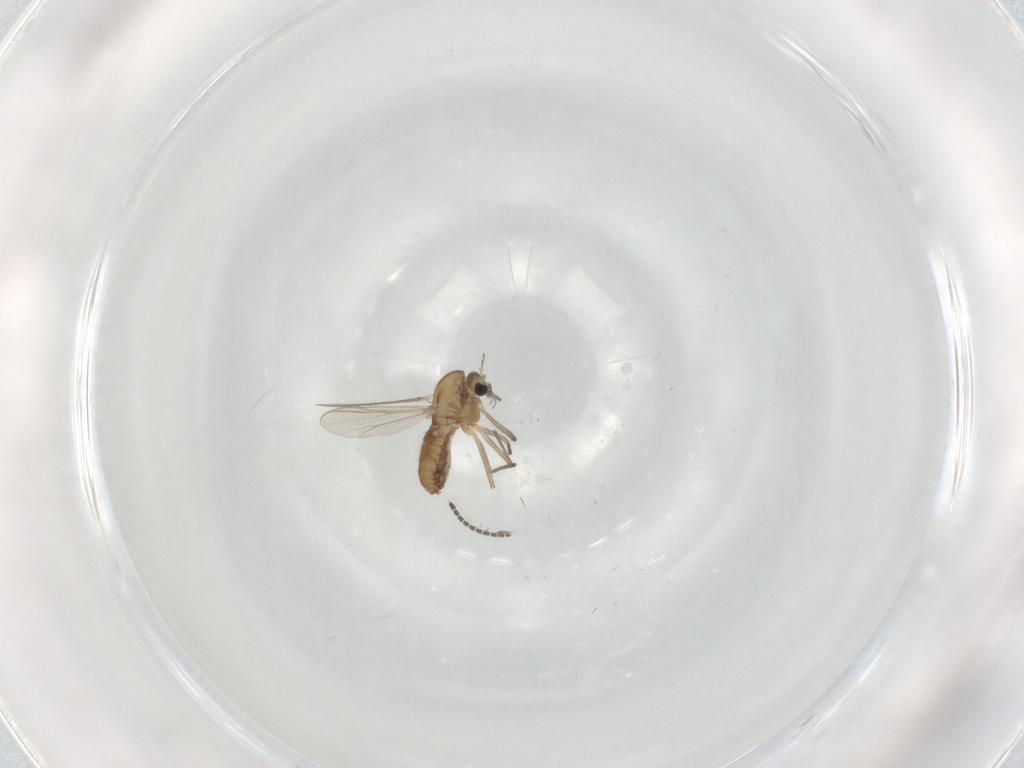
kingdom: Animalia
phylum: Arthropoda
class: Insecta
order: Diptera
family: Chironomidae
